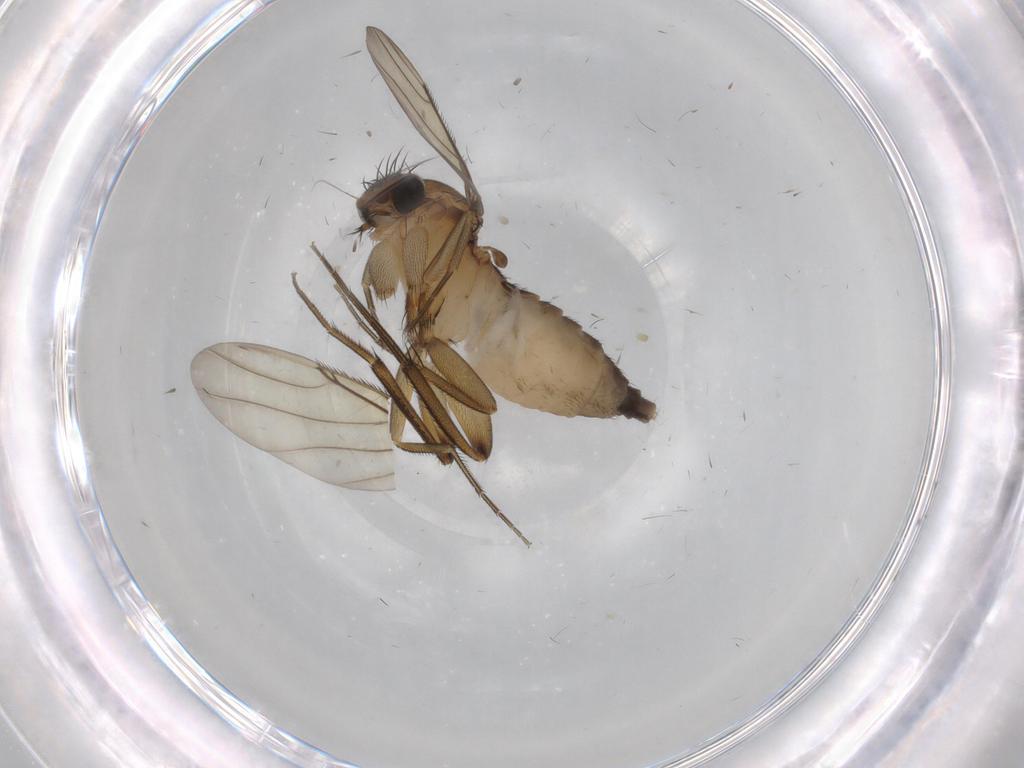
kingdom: Animalia
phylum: Arthropoda
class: Insecta
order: Diptera
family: Phoridae
